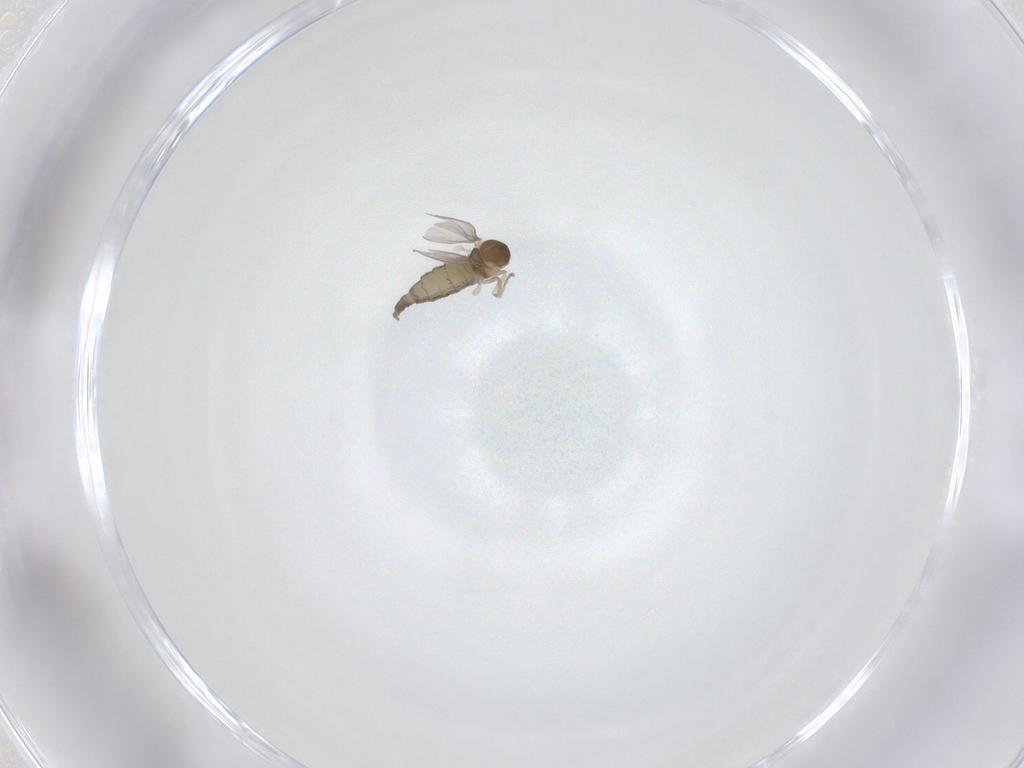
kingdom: Animalia
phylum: Arthropoda
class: Insecta
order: Diptera
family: Cecidomyiidae
